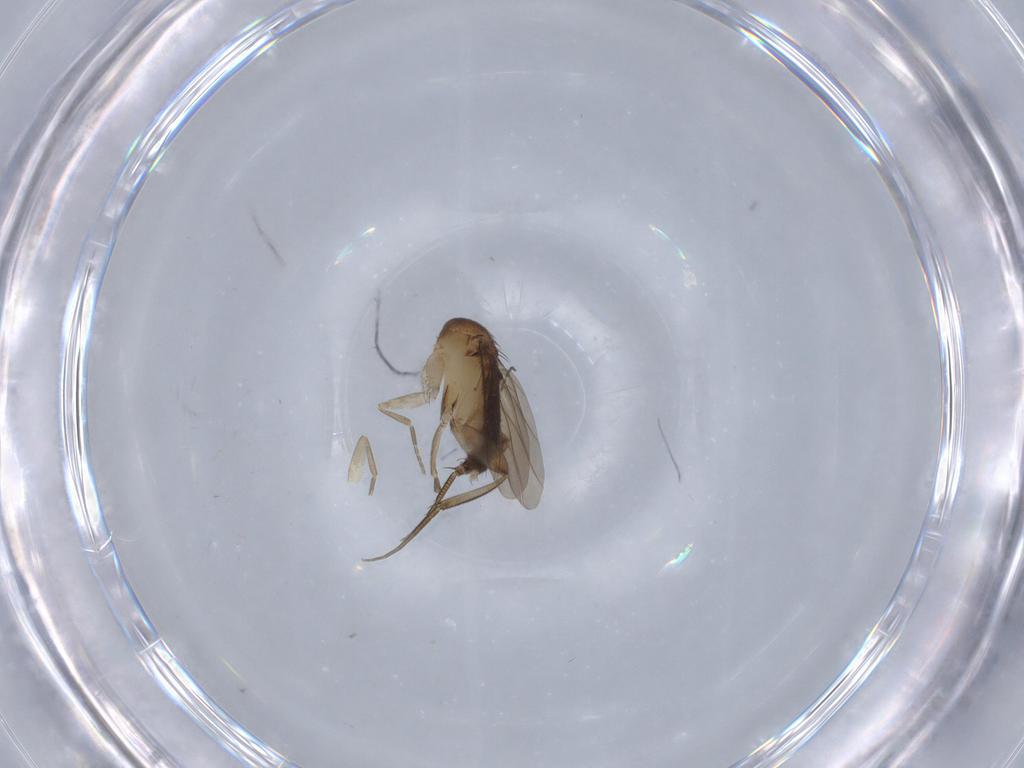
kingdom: Animalia
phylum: Arthropoda
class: Insecta
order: Diptera
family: Phoridae
